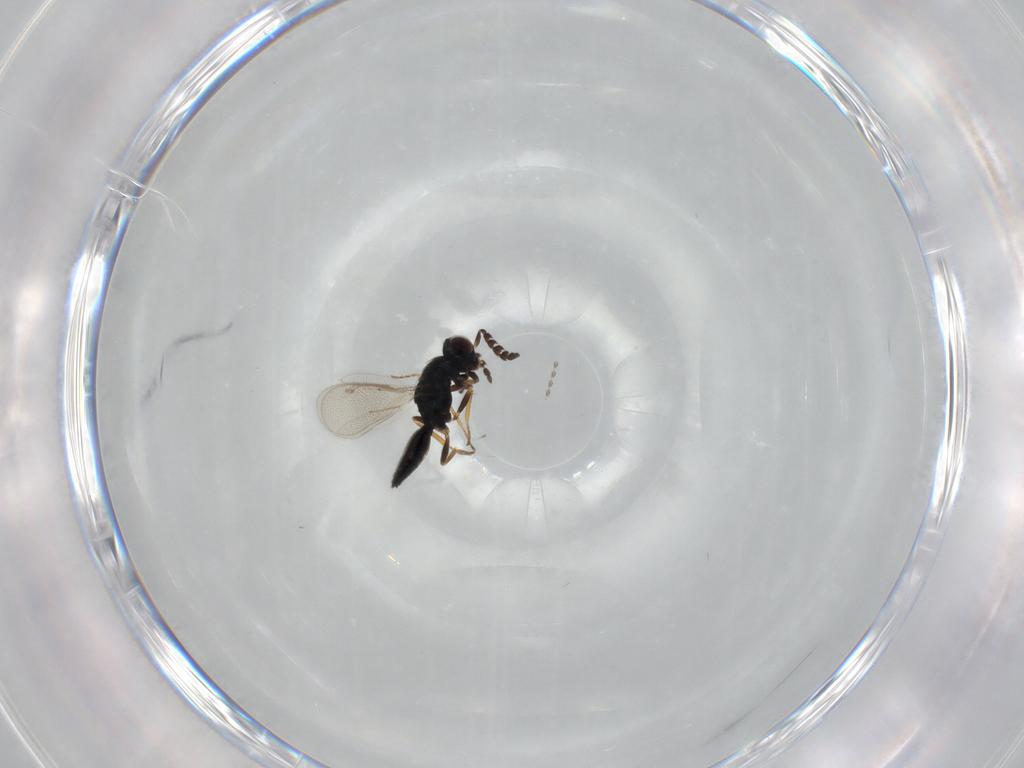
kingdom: Animalia
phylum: Arthropoda
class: Insecta
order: Hymenoptera
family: Eulophidae
